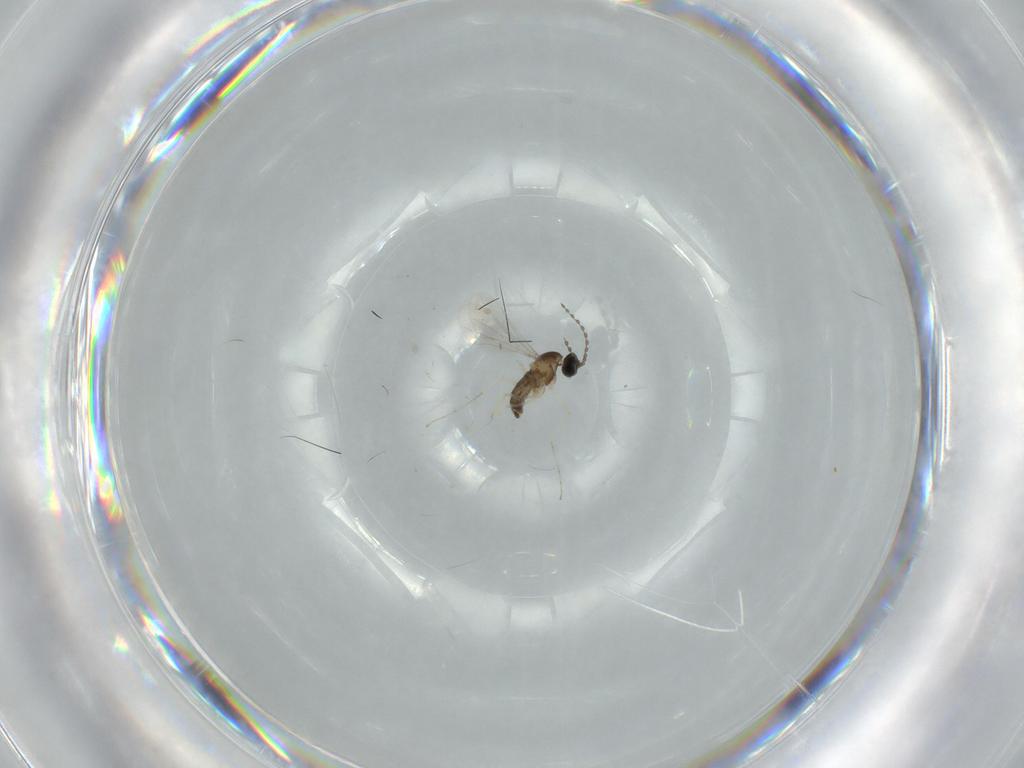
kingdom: Animalia
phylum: Arthropoda
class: Insecta
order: Diptera
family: Cecidomyiidae
